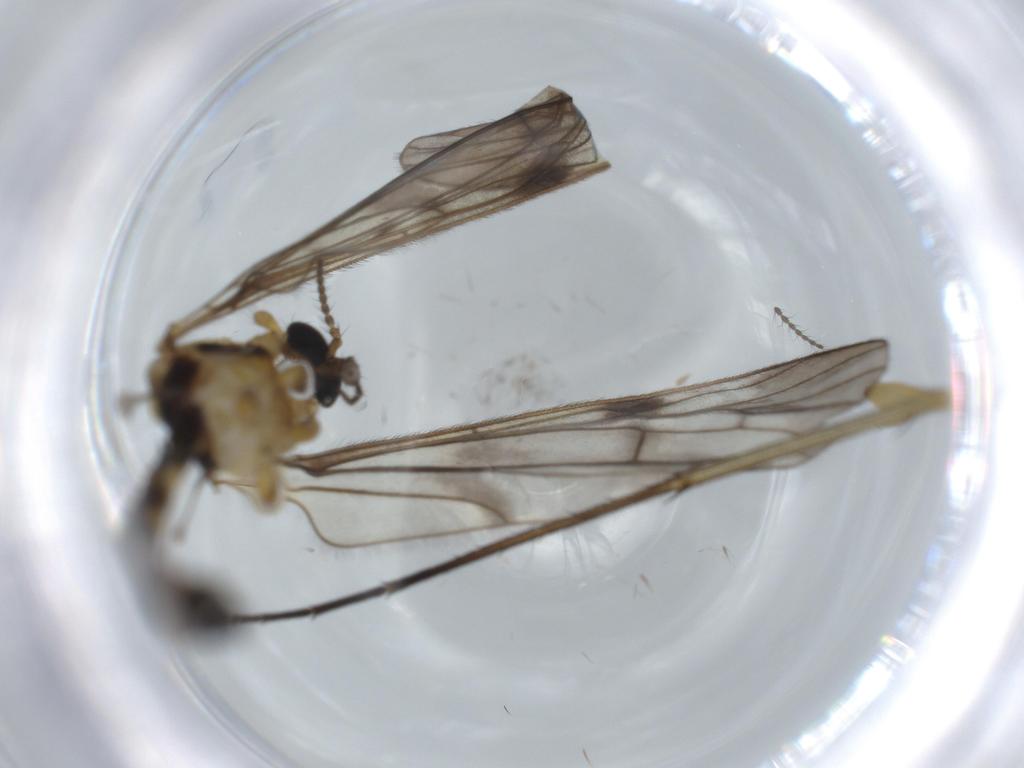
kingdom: Animalia
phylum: Arthropoda
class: Insecta
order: Diptera
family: Limoniidae
